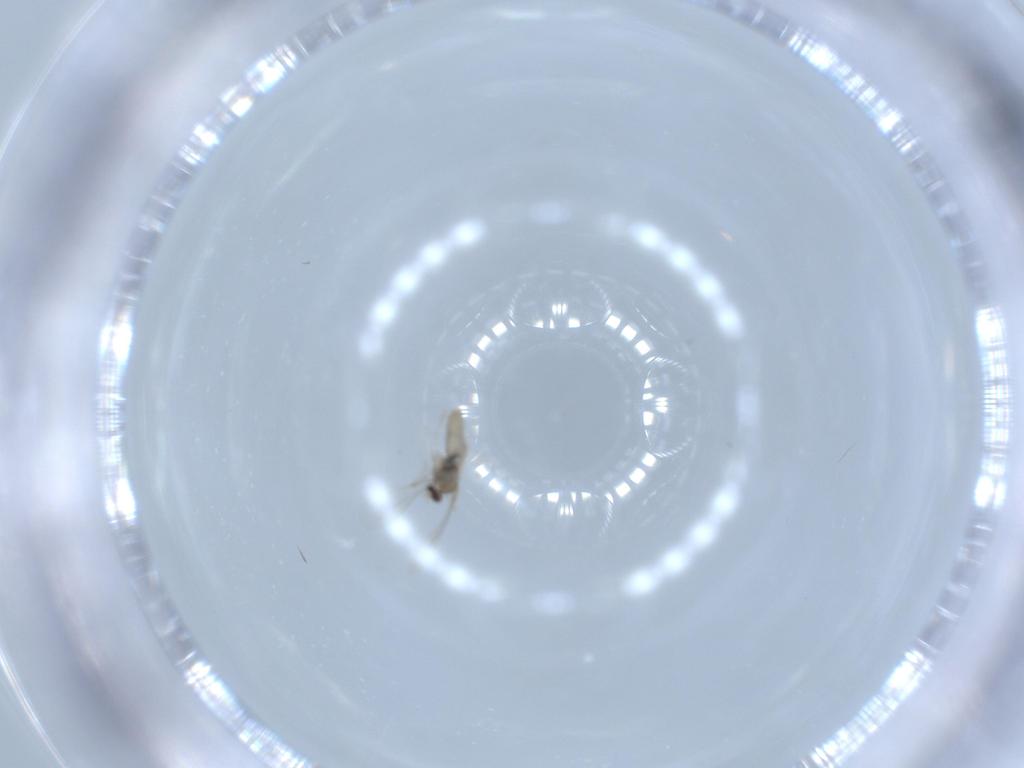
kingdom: Animalia
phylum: Arthropoda
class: Insecta
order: Diptera
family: Cecidomyiidae
